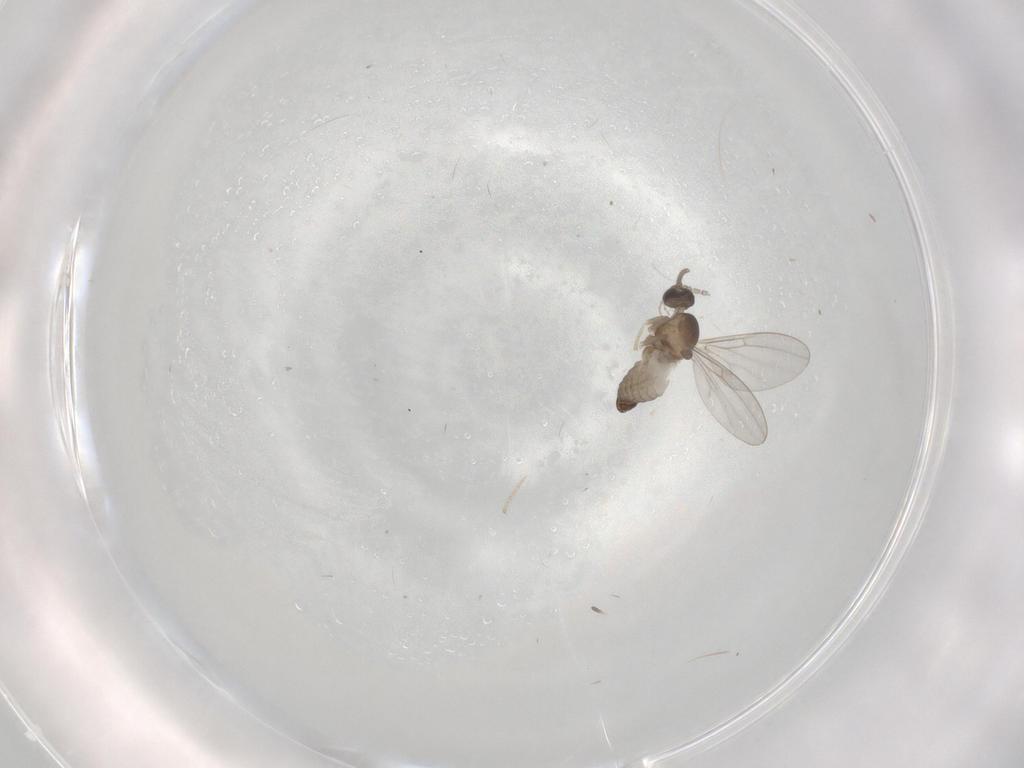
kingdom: Animalia
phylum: Arthropoda
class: Insecta
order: Diptera
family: Cecidomyiidae
